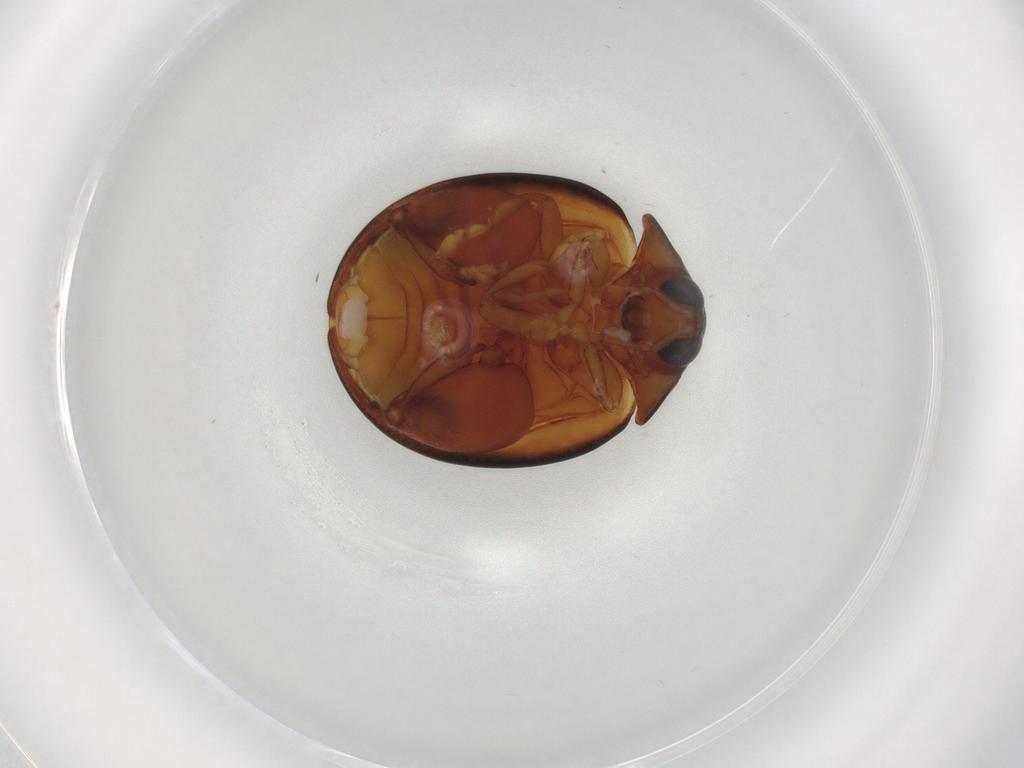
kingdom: Animalia
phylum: Arthropoda
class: Insecta
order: Coleoptera
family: Chrysomelidae
